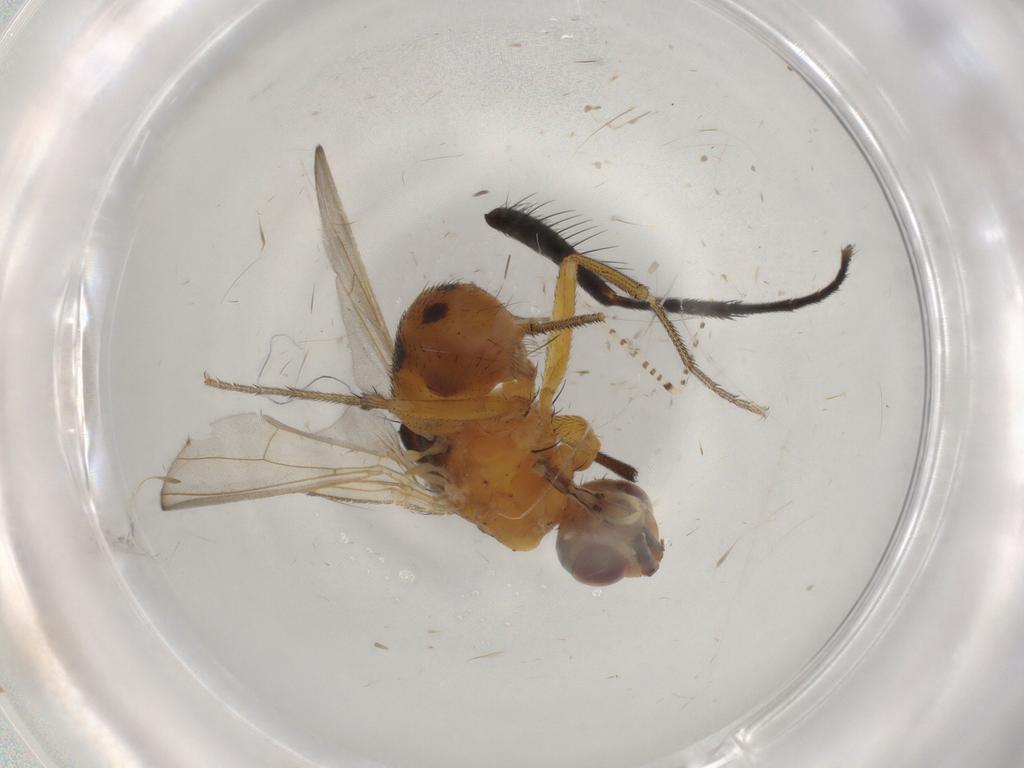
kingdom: Animalia
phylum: Arthropoda
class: Insecta
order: Diptera
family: Muscidae
